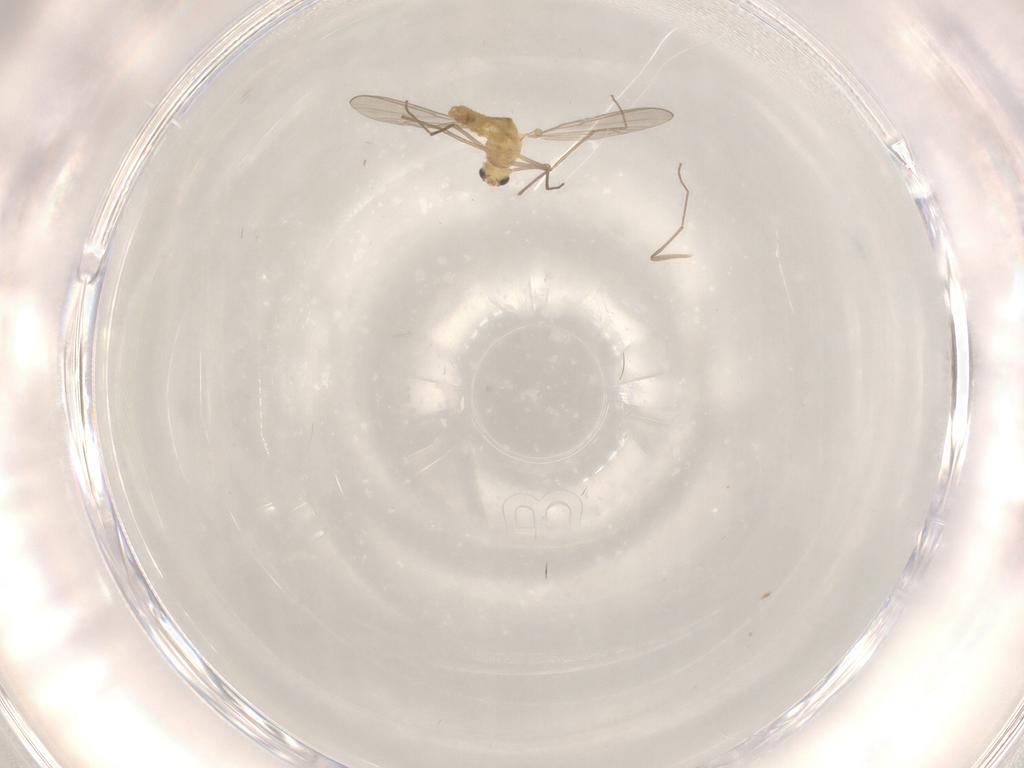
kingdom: Animalia
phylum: Arthropoda
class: Insecta
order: Diptera
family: Chironomidae
